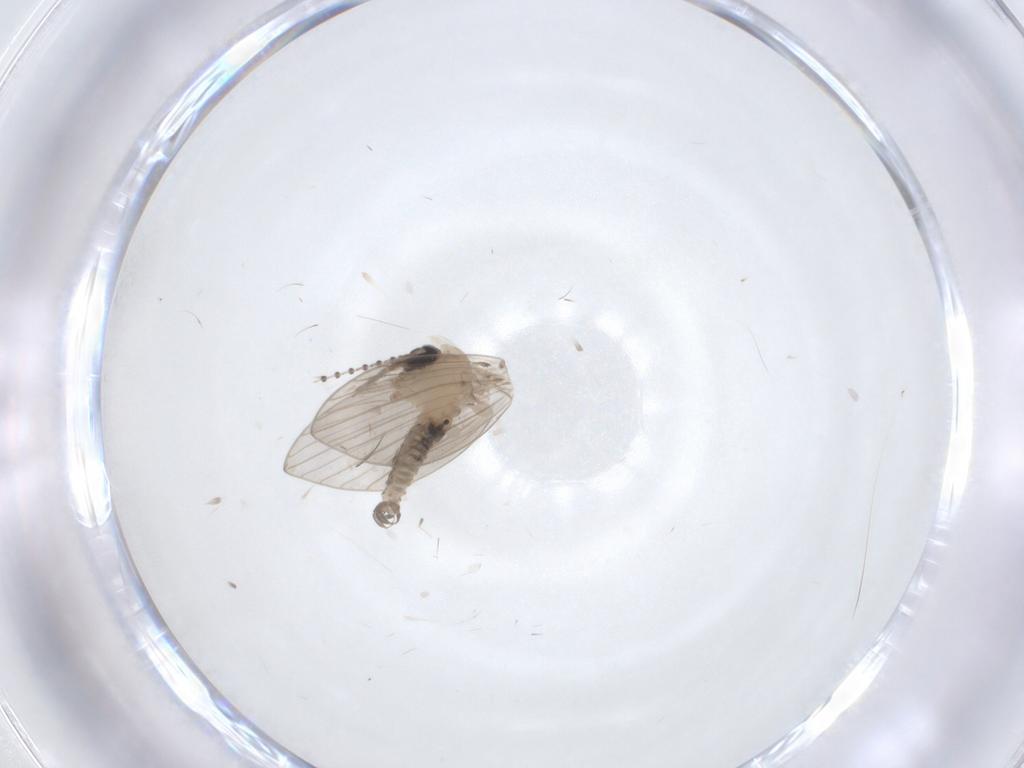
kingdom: Animalia
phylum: Arthropoda
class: Insecta
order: Diptera
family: Psychodidae
